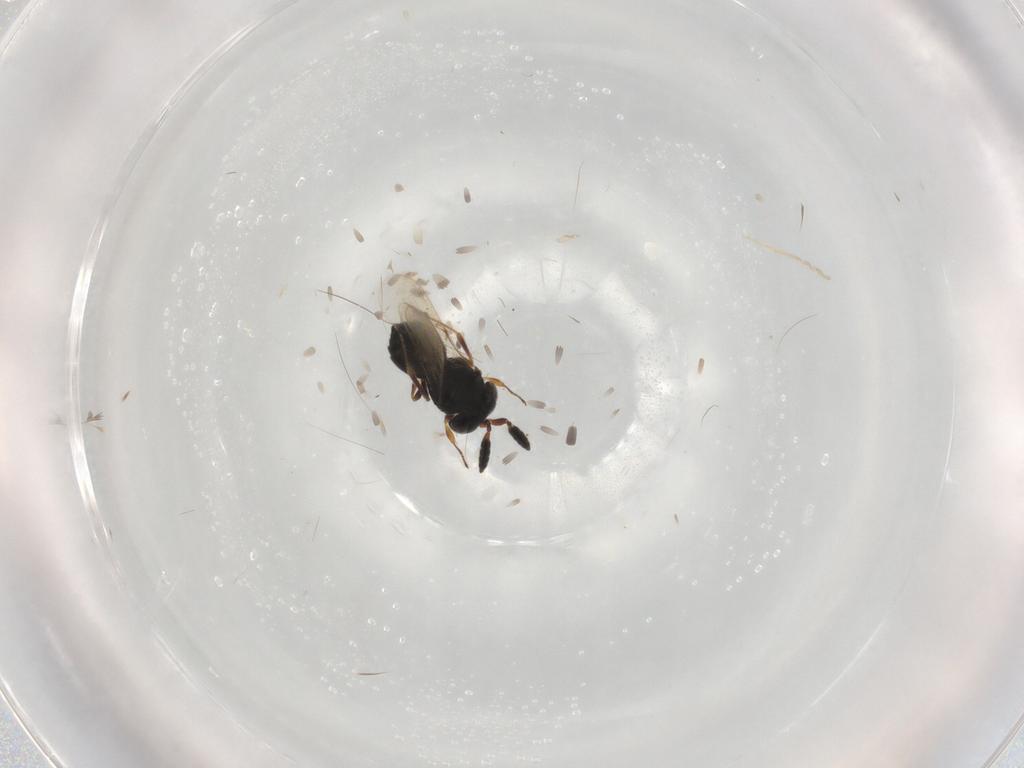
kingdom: Animalia
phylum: Arthropoda
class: Insecta
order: Hymenoptera
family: Scelionidae
